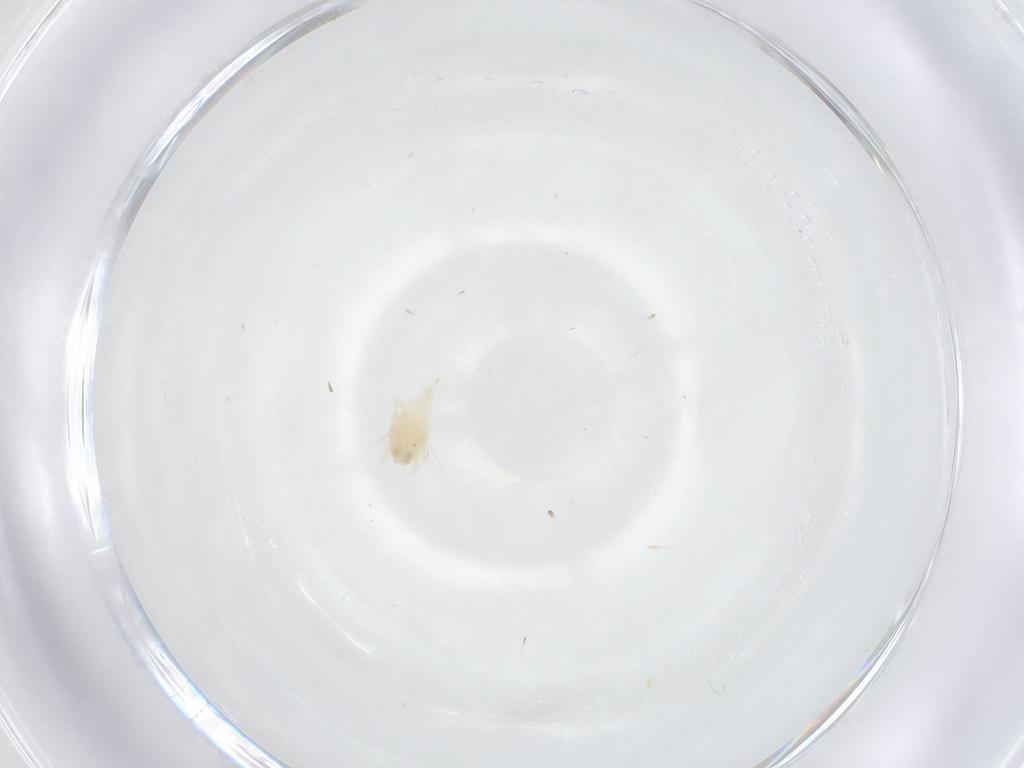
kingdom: Animalia
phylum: Arthropoda
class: Arachnida
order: Trombidiformes
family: Bdellidae
